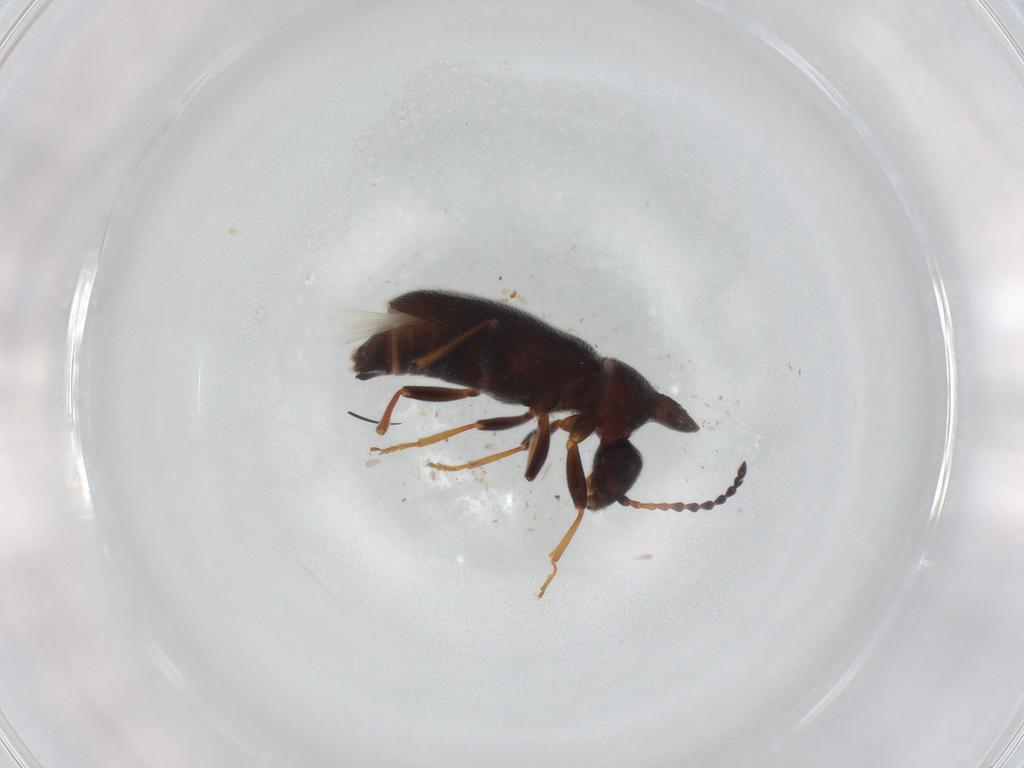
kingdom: Animalia
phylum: Arthropoda
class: Insecta
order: Coleoptera
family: Anthicidae
